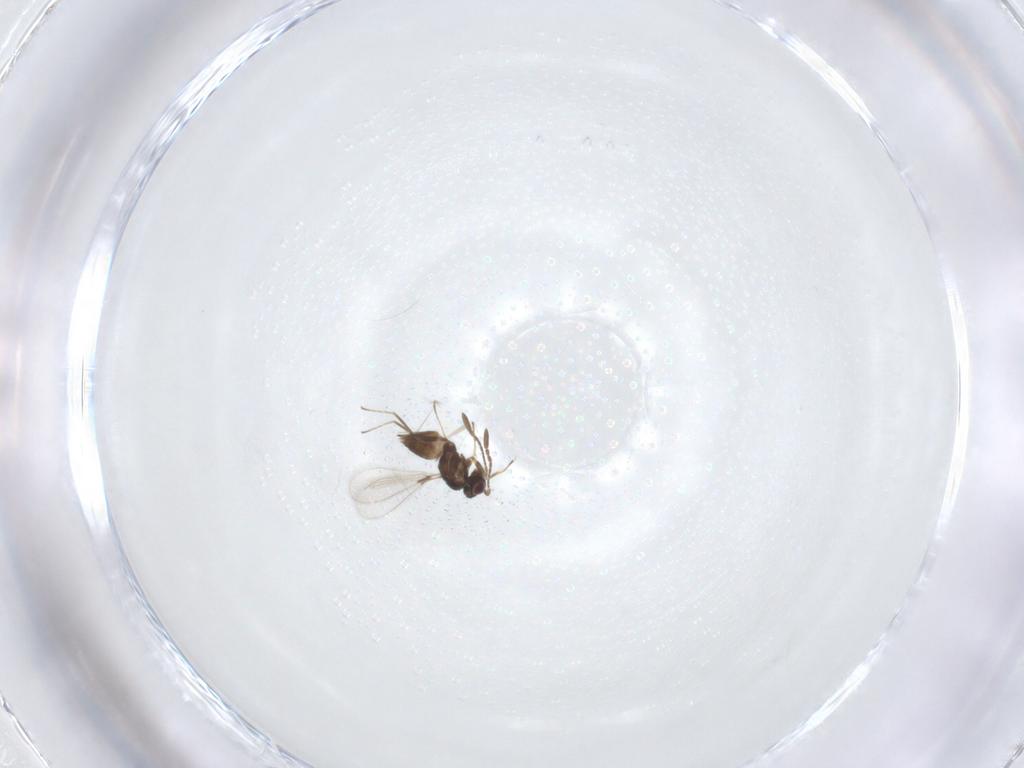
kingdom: Animalia
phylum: Arthropoda
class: Insecta
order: Hymenoptera
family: Mymaridae
